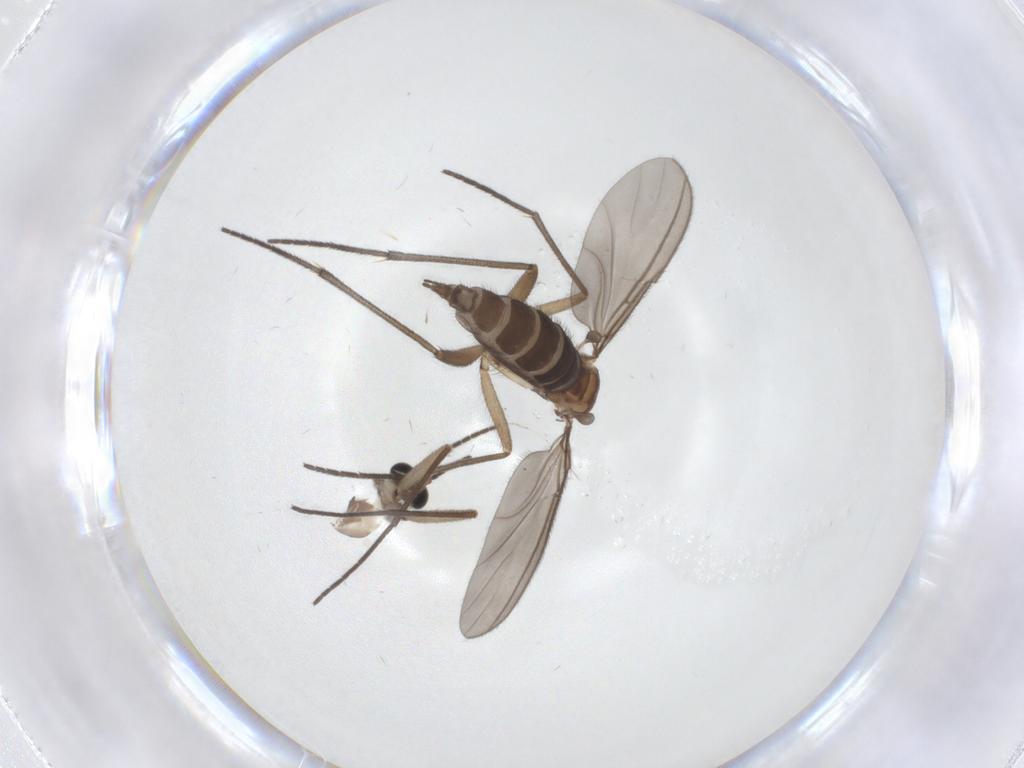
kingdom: Animalia
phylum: Arthropoda
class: Insecta
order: Diptera
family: Sciaridae
